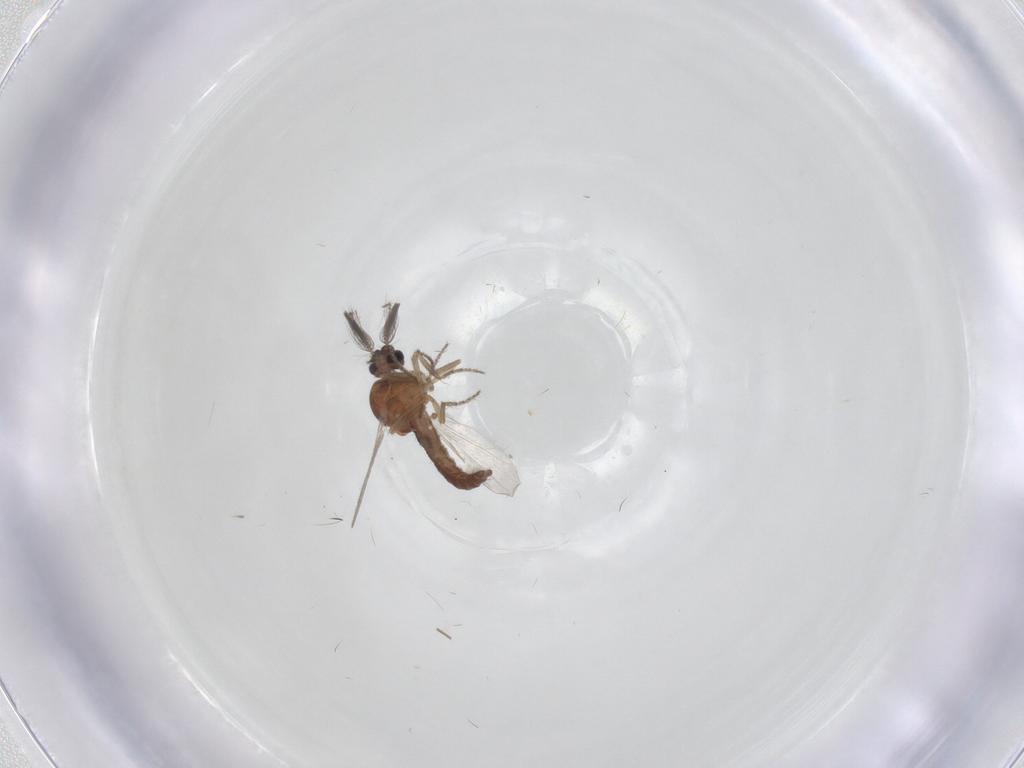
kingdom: Animalia
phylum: Arthropoda
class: Insecta
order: Diptera
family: Ceratopogonidae
